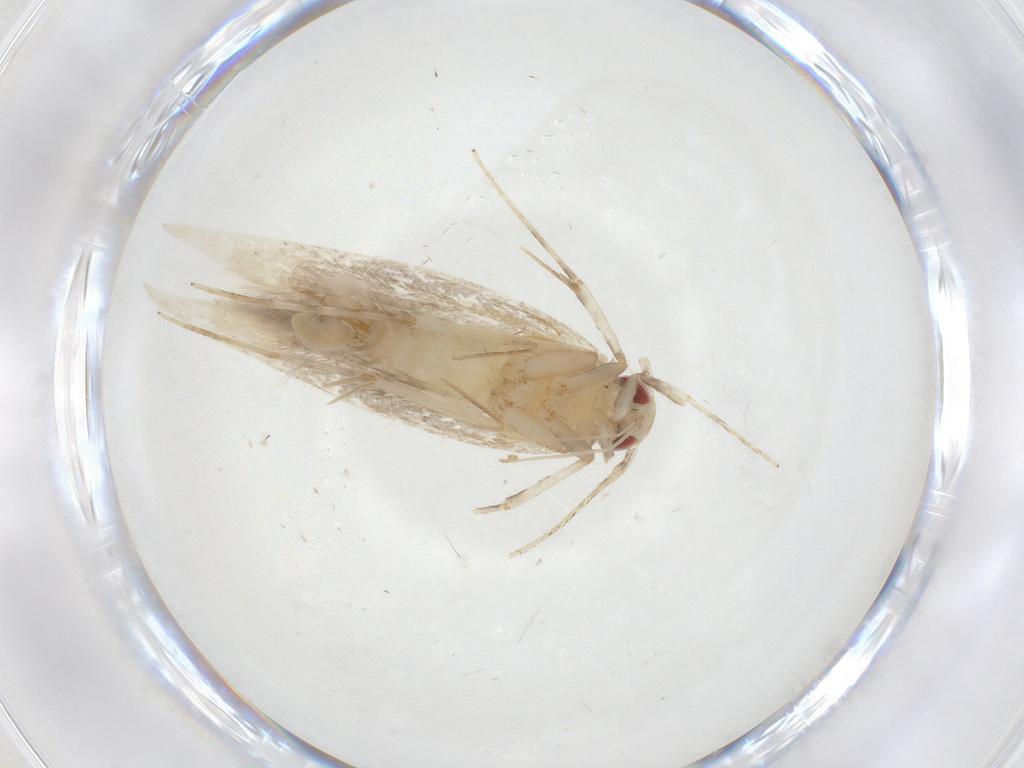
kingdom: Animalia
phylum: Arthropoda
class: Insecta
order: Lepidoptera
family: Cosmopterigidae
